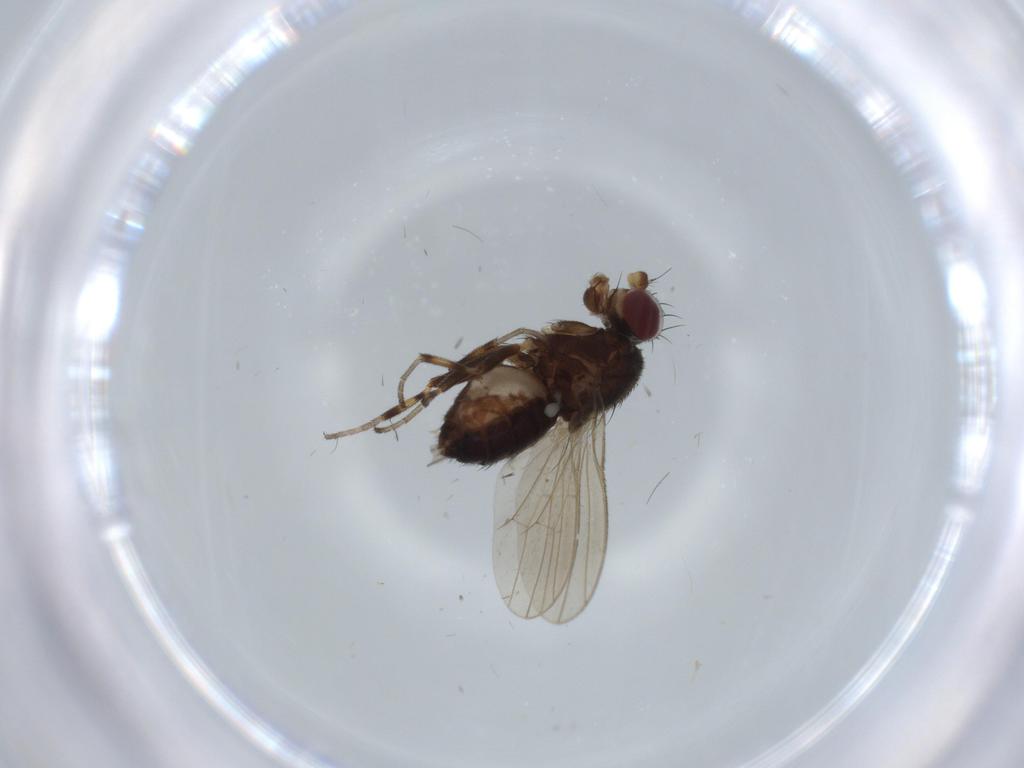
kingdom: Animalia
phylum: Arthropoda
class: Insecta
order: Diptera
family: Heleomyzidae
